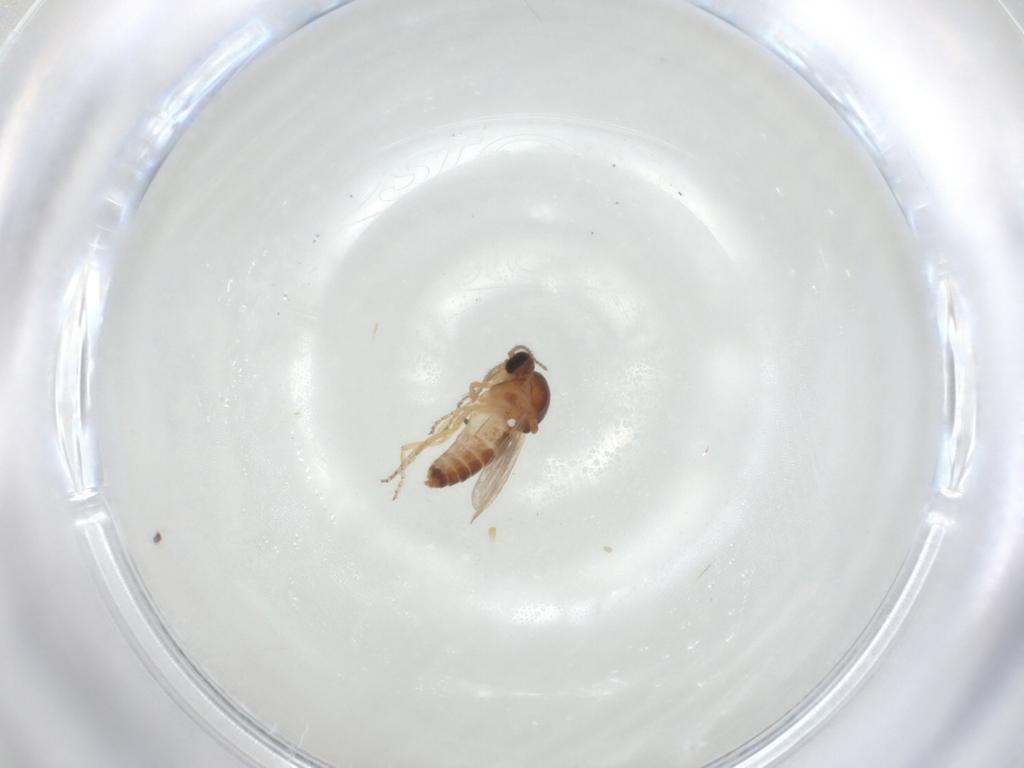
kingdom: Animalia
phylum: Arthropoda
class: Insecta
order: Diptera
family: Ceratopogonidae
